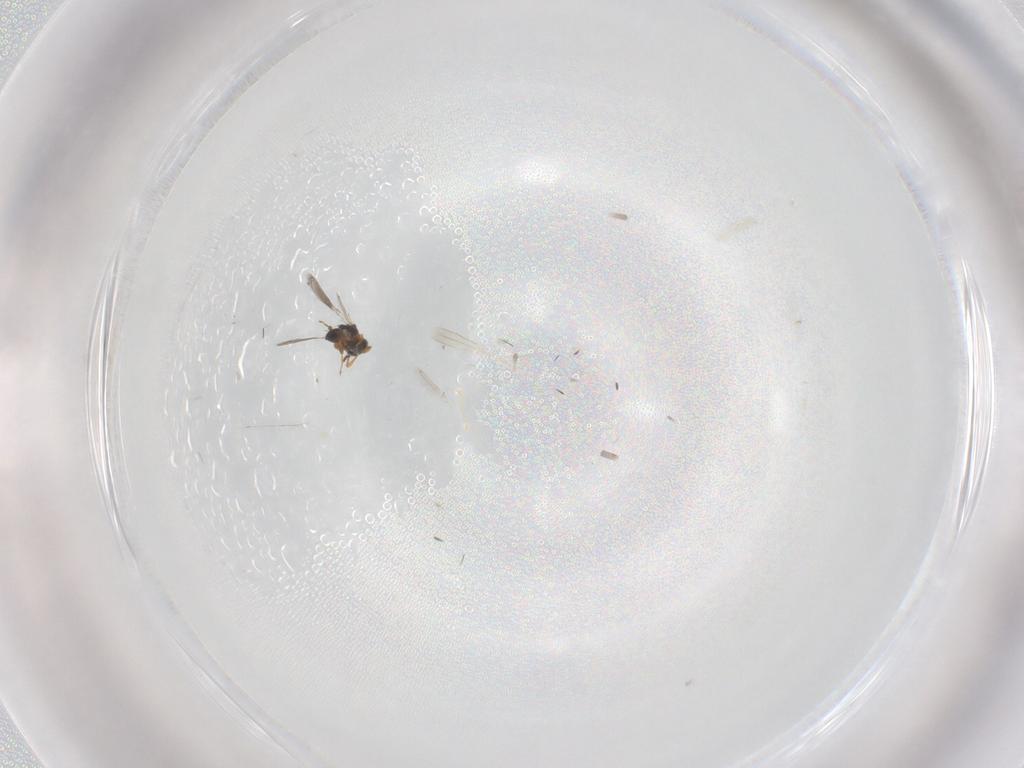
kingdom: Animalia
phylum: Arthropoda
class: Insecta
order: Hymenoptera
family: Platygastridae
